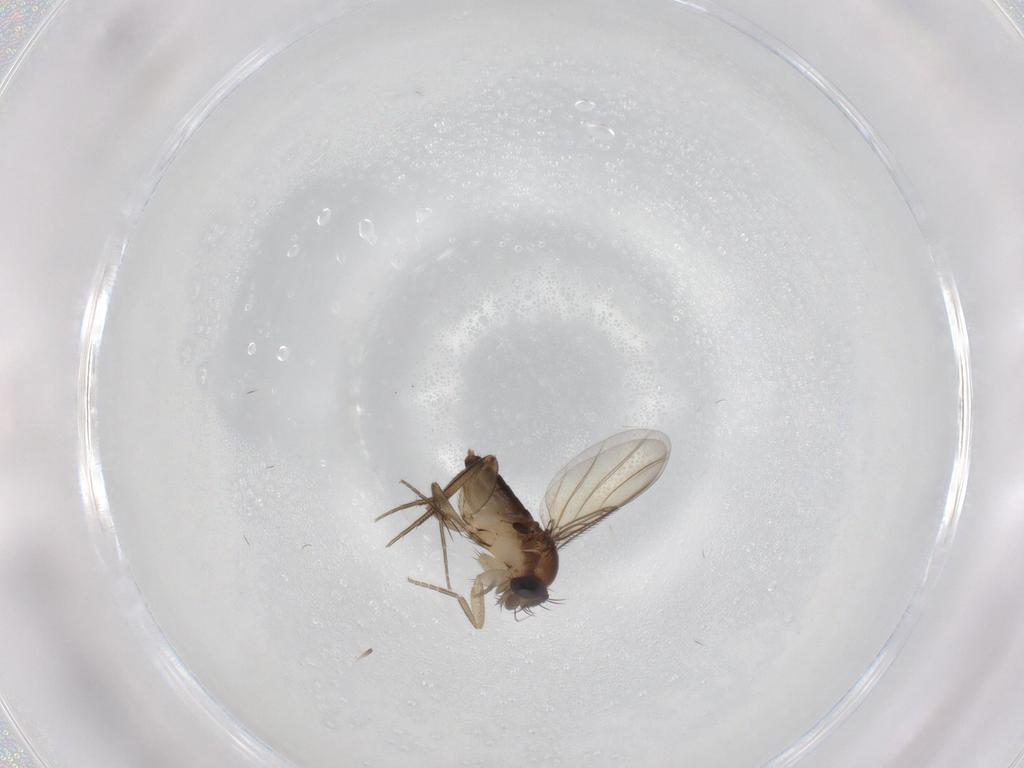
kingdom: Animalia
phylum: Arthropoda
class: Insecta
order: Diptera
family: Phoridae
